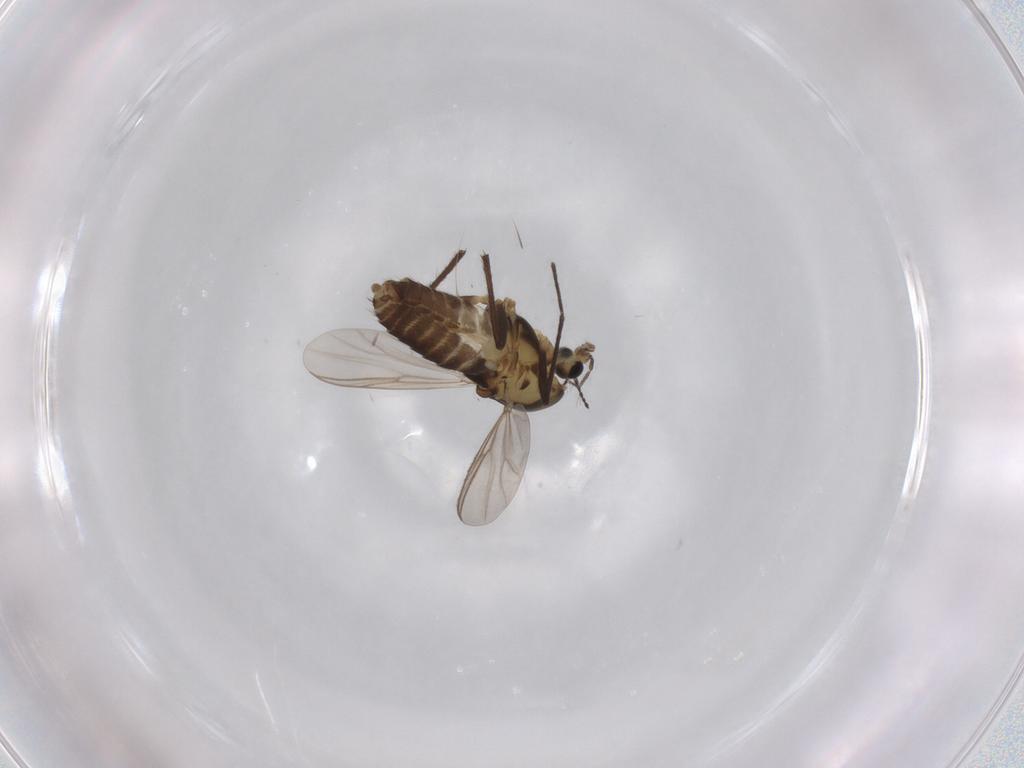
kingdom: Animalia
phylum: Arthropoda
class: Insecta
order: Diptera
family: Chironomidae
